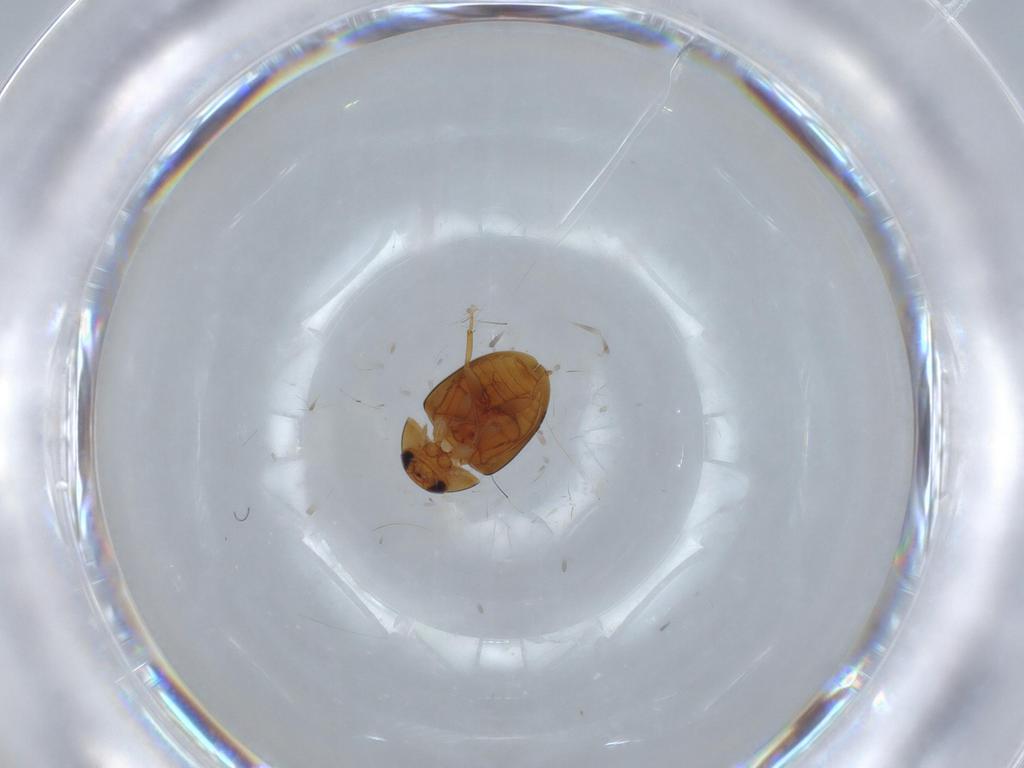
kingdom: Animalia
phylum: Arthropoda
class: Insecta
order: Coleoptera
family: Phalacridae
